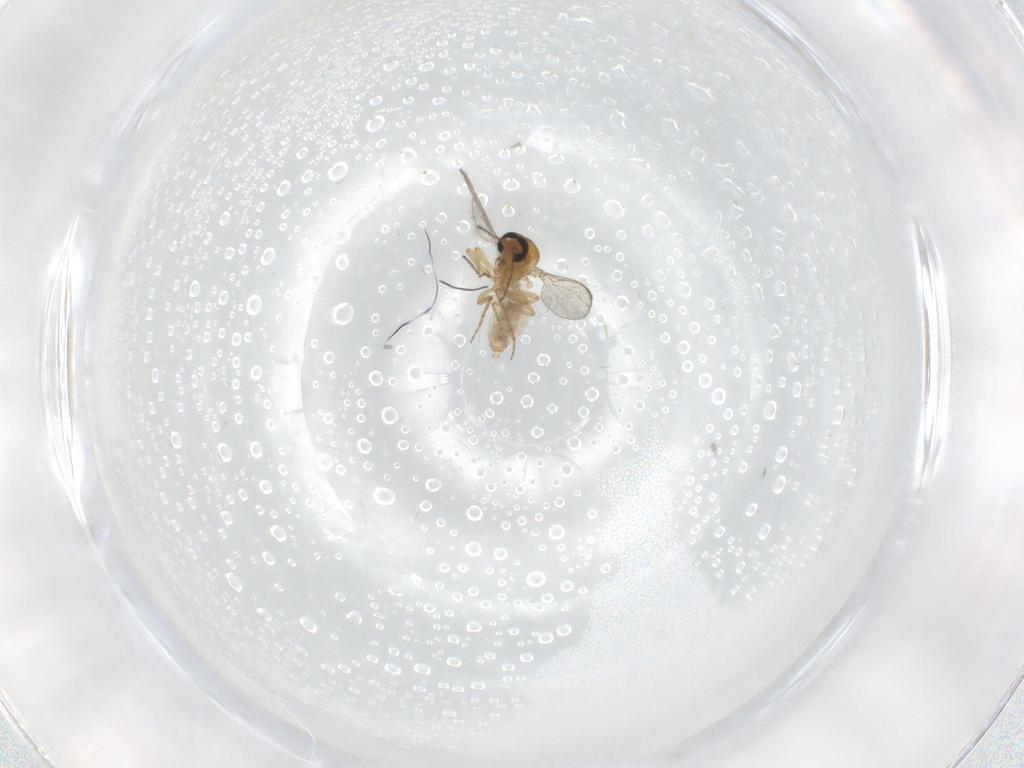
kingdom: Animalia
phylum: Arthropoda
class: Insecta
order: Diptera
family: Ceratopogonidae
